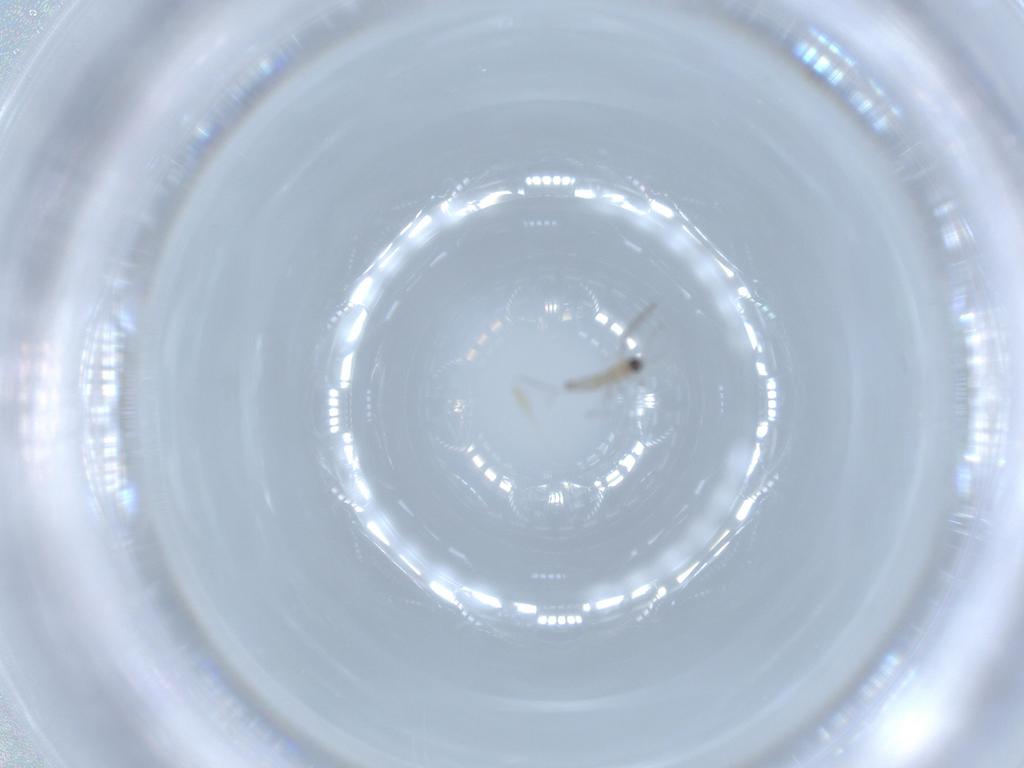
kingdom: Animalia
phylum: Arthropoda
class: Insecta
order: Diptera
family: Cecidomyiidae
